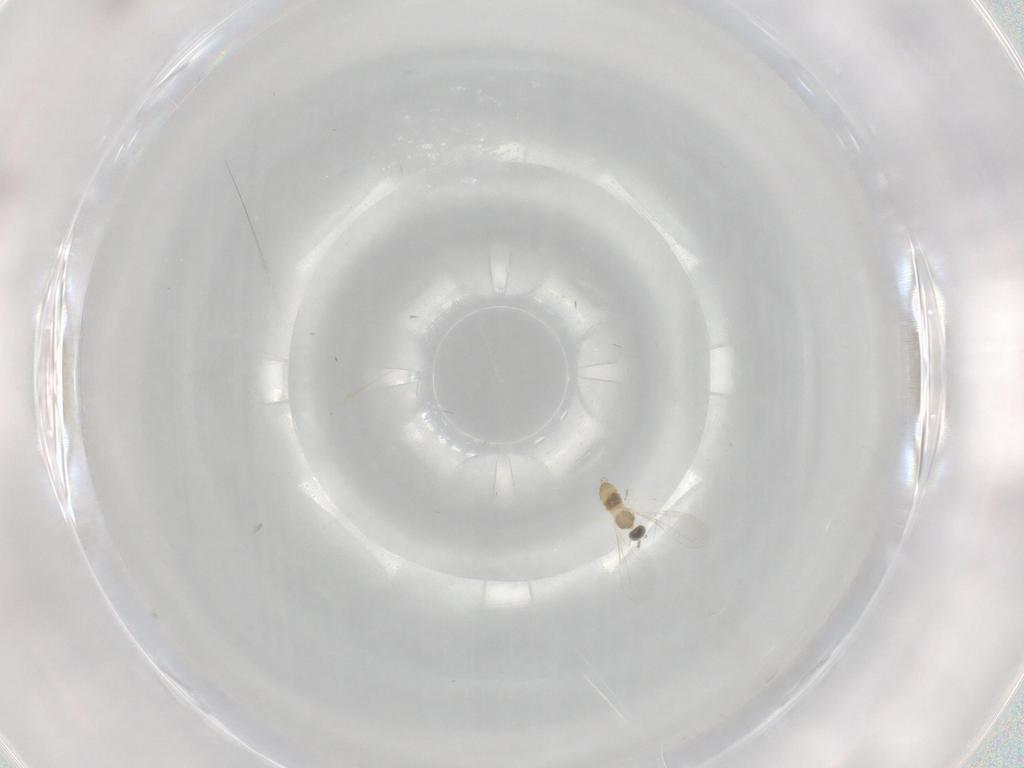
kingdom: Animalia
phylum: Arthropoda
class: Insecta
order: Diptera
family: Cecidomyiidae
